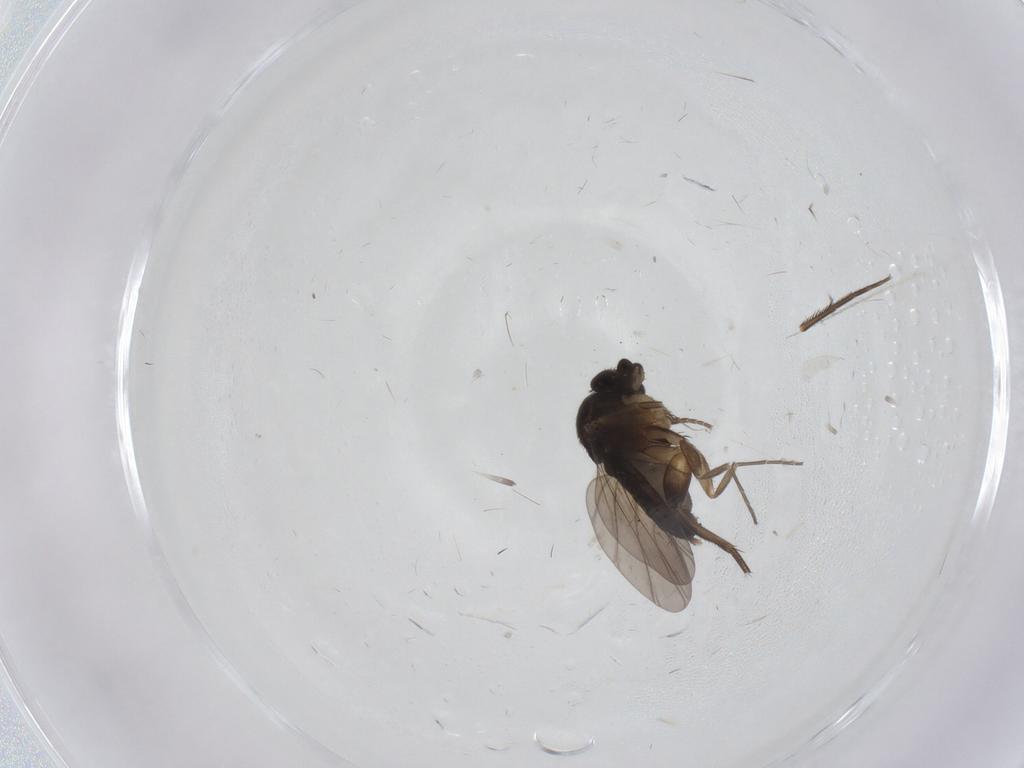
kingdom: Animalia
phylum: Arthropoda
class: Insecta
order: Diptera
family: Phoridae
